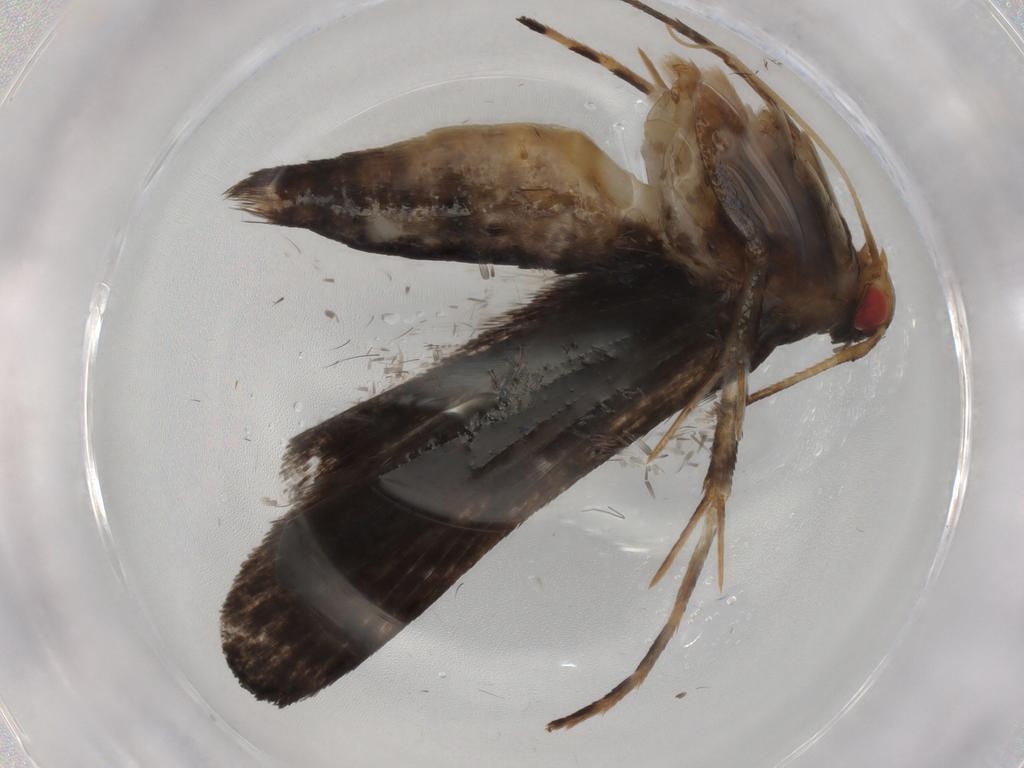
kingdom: Animalia
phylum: Arthropoda
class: Insecta
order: Lepidoptera
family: Gelechiidae
